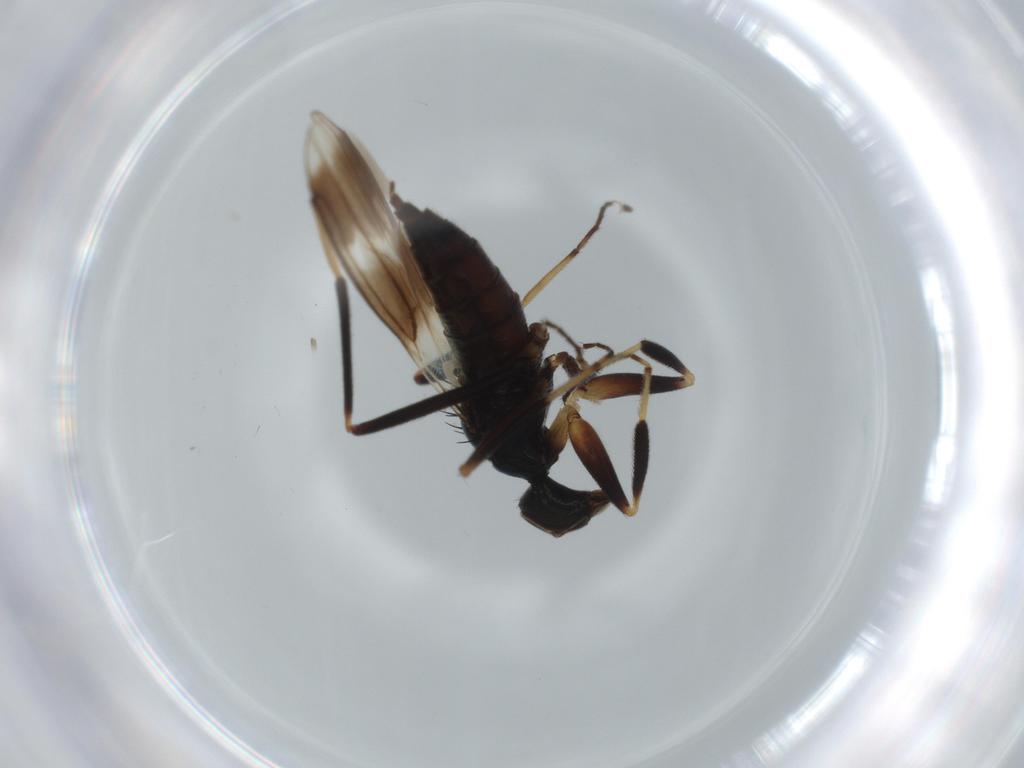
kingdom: Animalia
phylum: Arthropoda
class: Insecta
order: Diptera
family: Hybotidae
